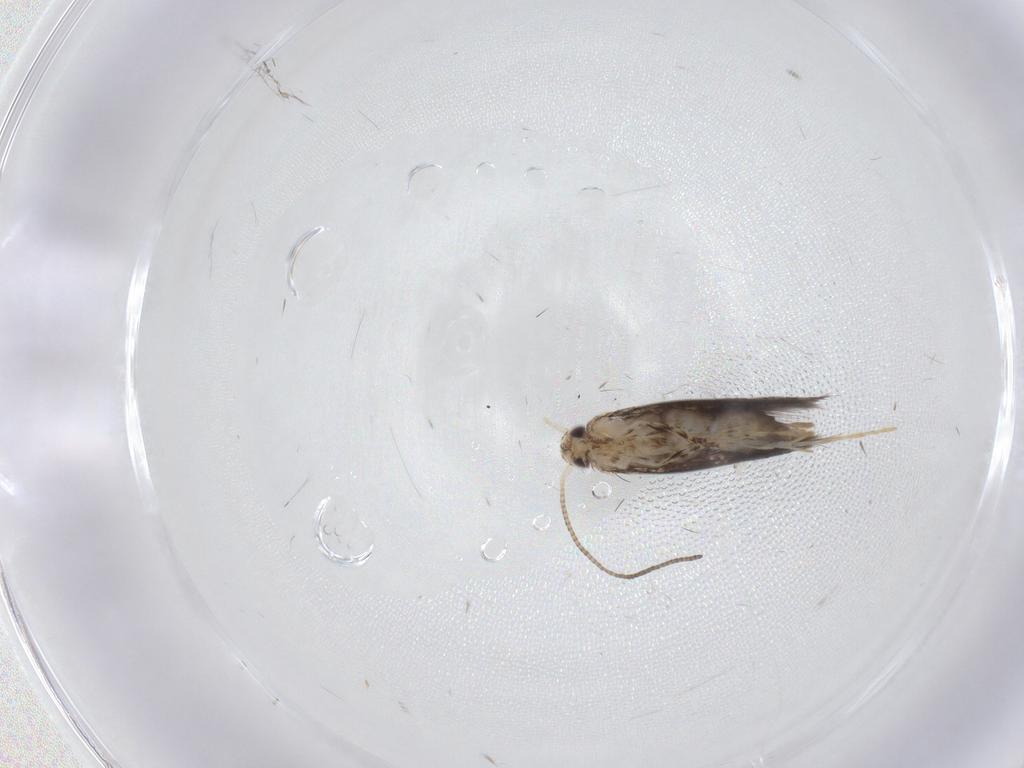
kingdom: Animalia
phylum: Arthropoda
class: Insecta
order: Lepidoptera
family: Gracillariidae
